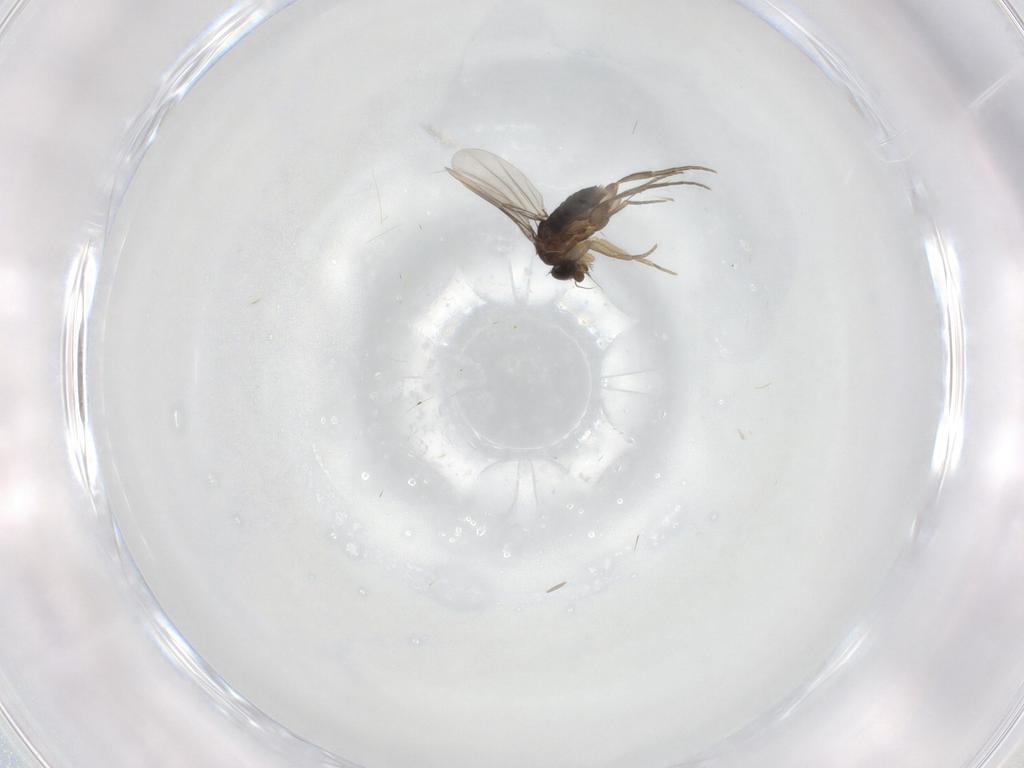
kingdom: Animalia
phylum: Arthropoda
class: Insecta
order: Diptera
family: Phoridae
